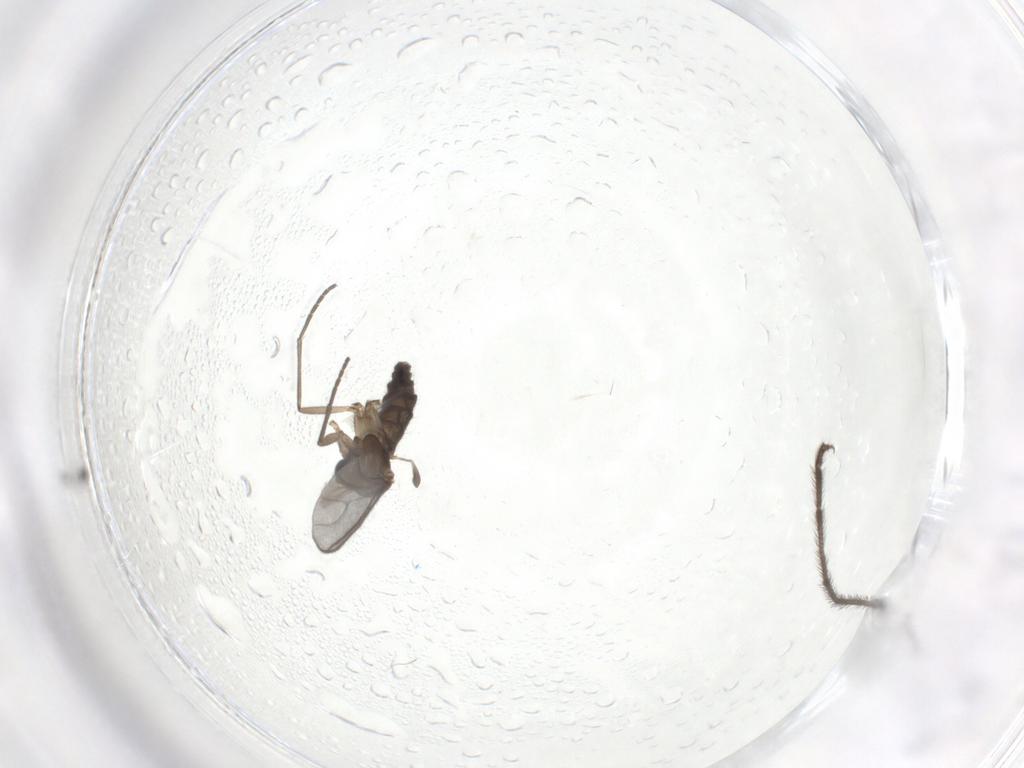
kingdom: Animalia
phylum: Arthropoda
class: Insecta
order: Diptera
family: Sciaridae
